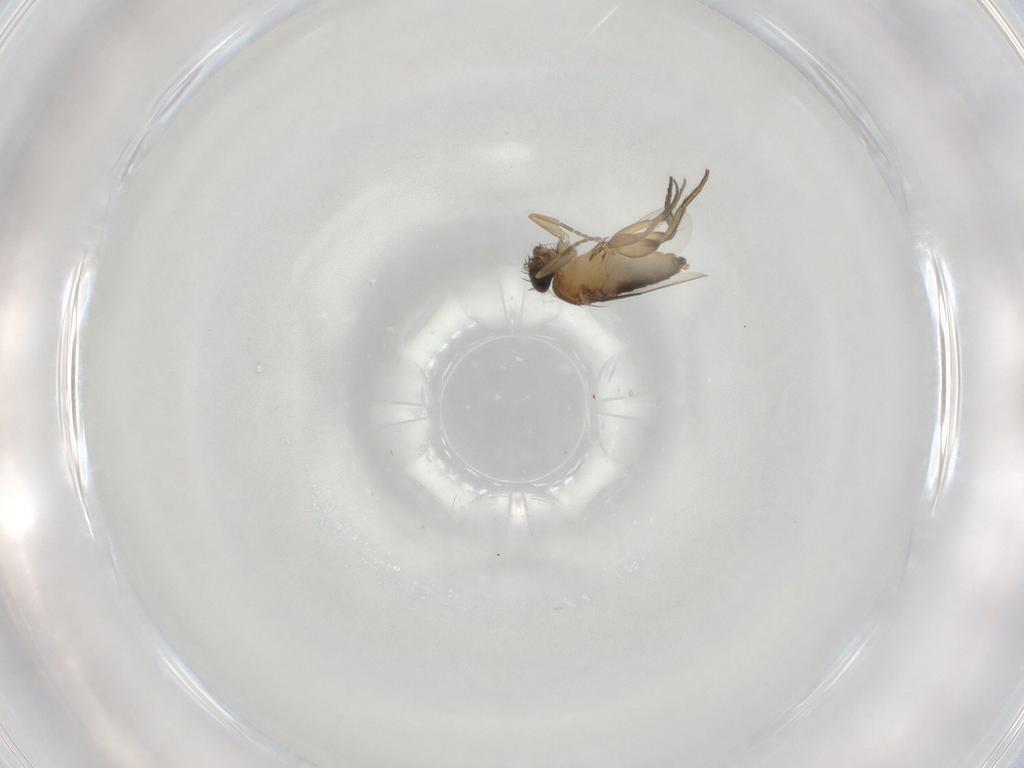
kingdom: Animalia
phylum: Arthropoda
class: Insecta
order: Diptera
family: Phoridae
